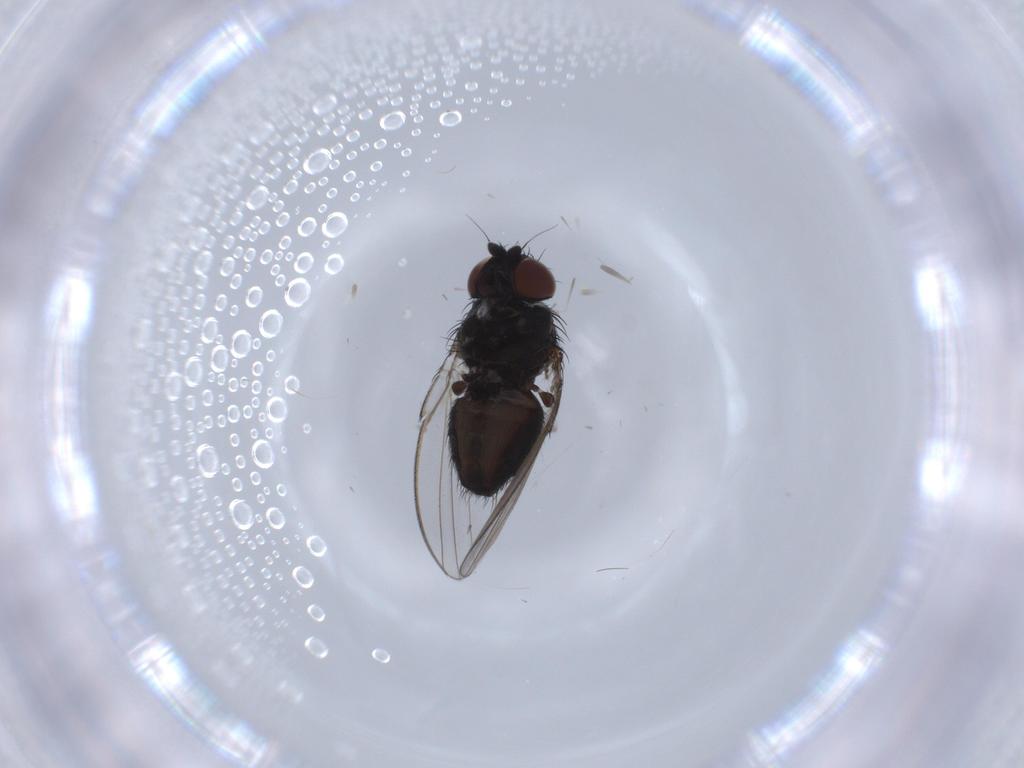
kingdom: Animalia
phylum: Arthropoda
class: Insecta
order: Diptera
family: Milichiidae
